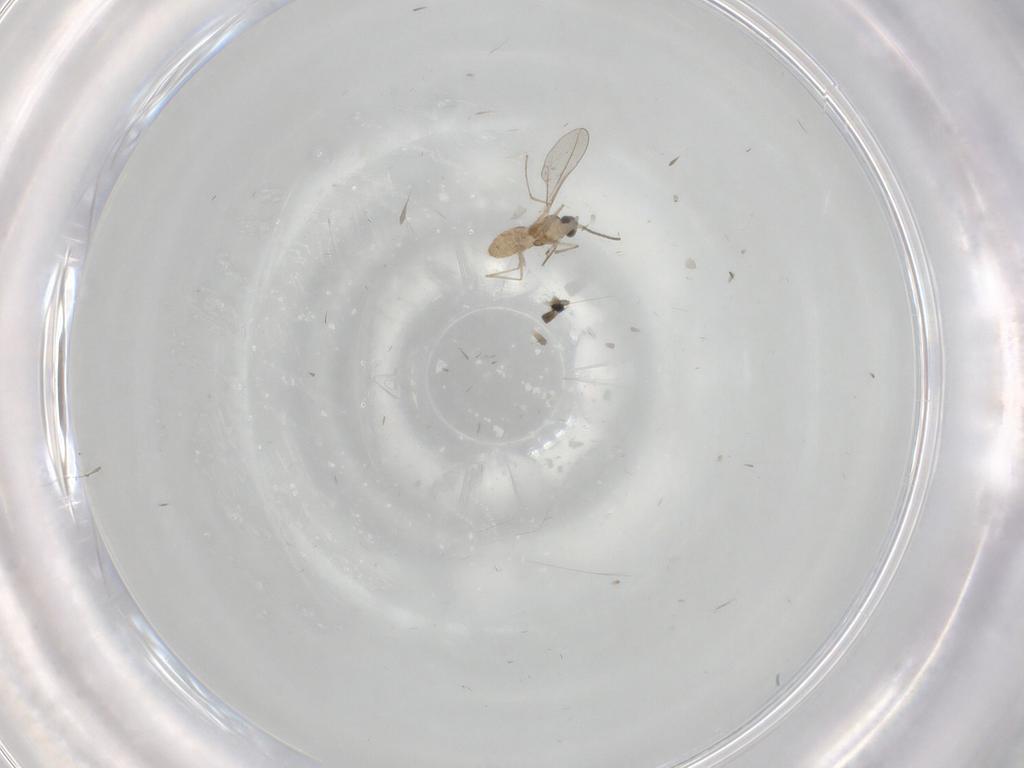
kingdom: Animalia
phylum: Arthropoda
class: Insecta
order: Diptera
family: Cecidomyiidae
